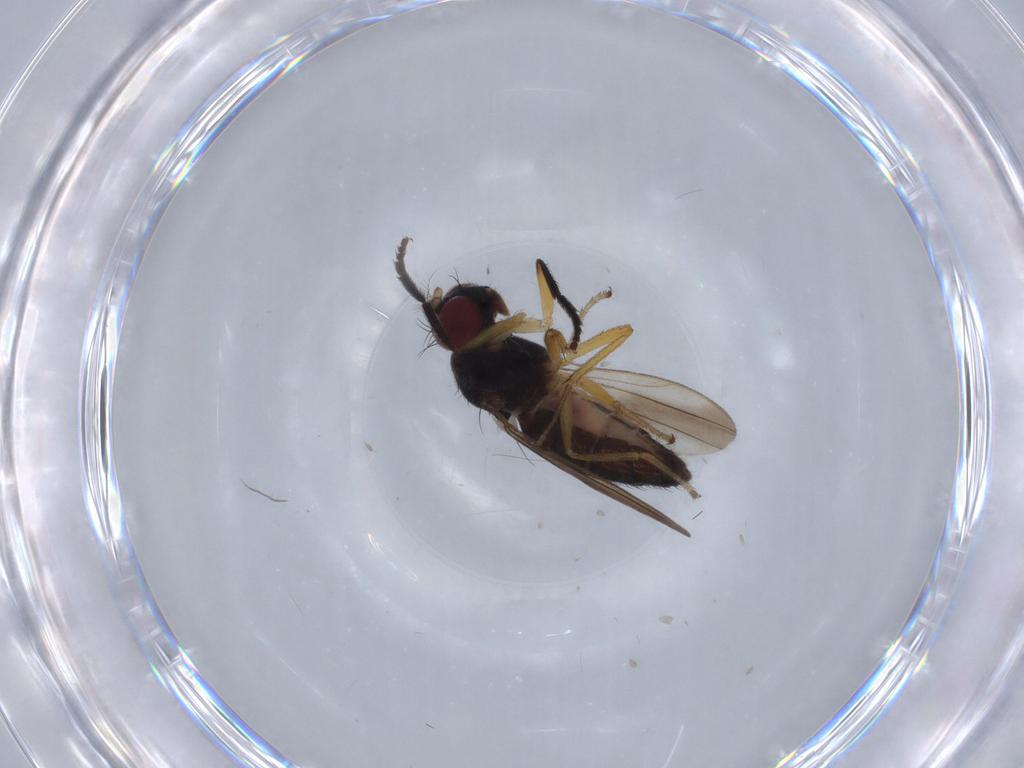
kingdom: Animalia
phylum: Arthropoda
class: Insecta
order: Diptera
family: Ephydridae
